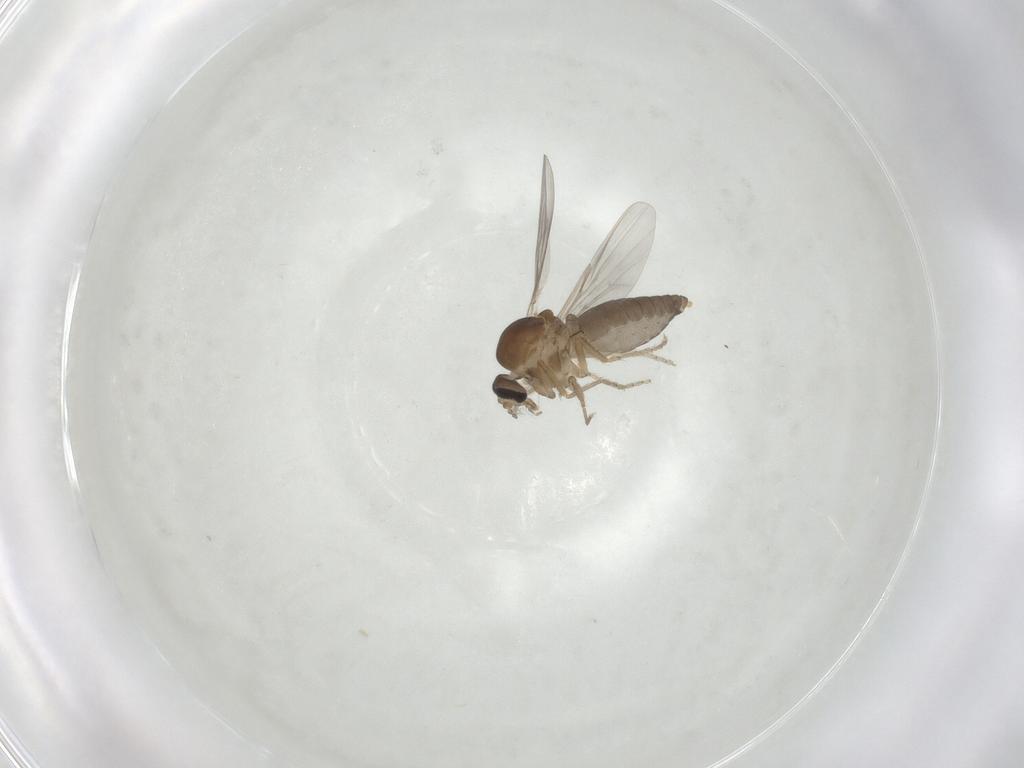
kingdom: Animalia
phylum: Arthropoda
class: Insecta
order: Diptera
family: Ceratopogonidae
